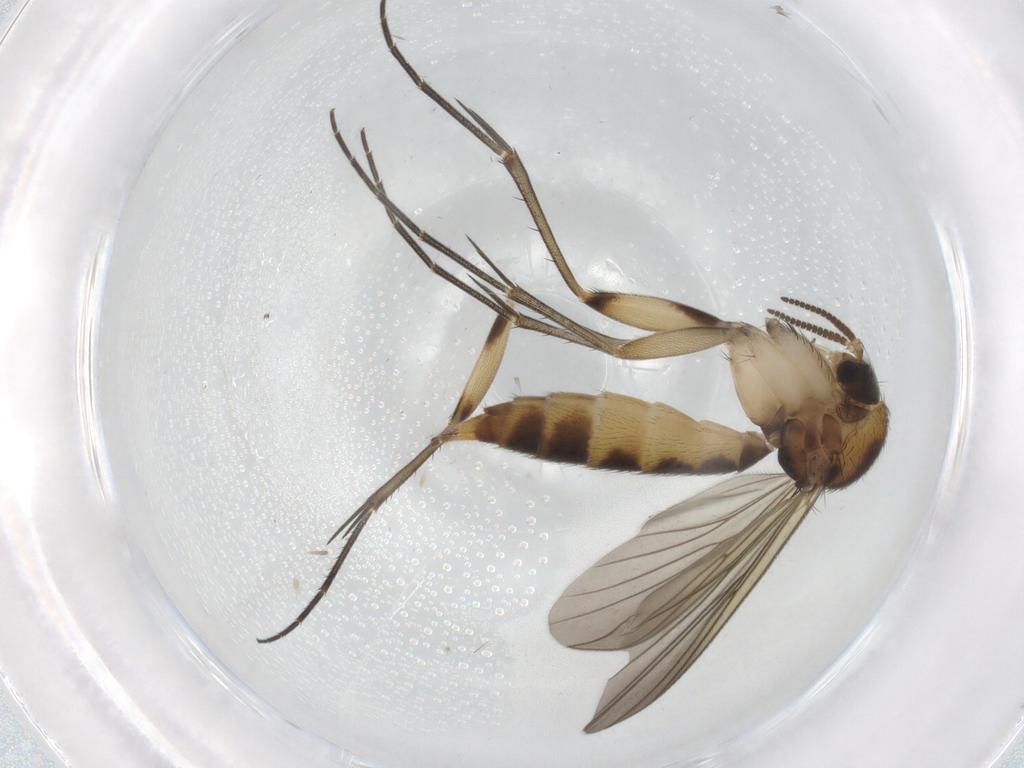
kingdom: Animalia
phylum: Arthropoda
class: Insecta
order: Diptera
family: Mycetophilidae
